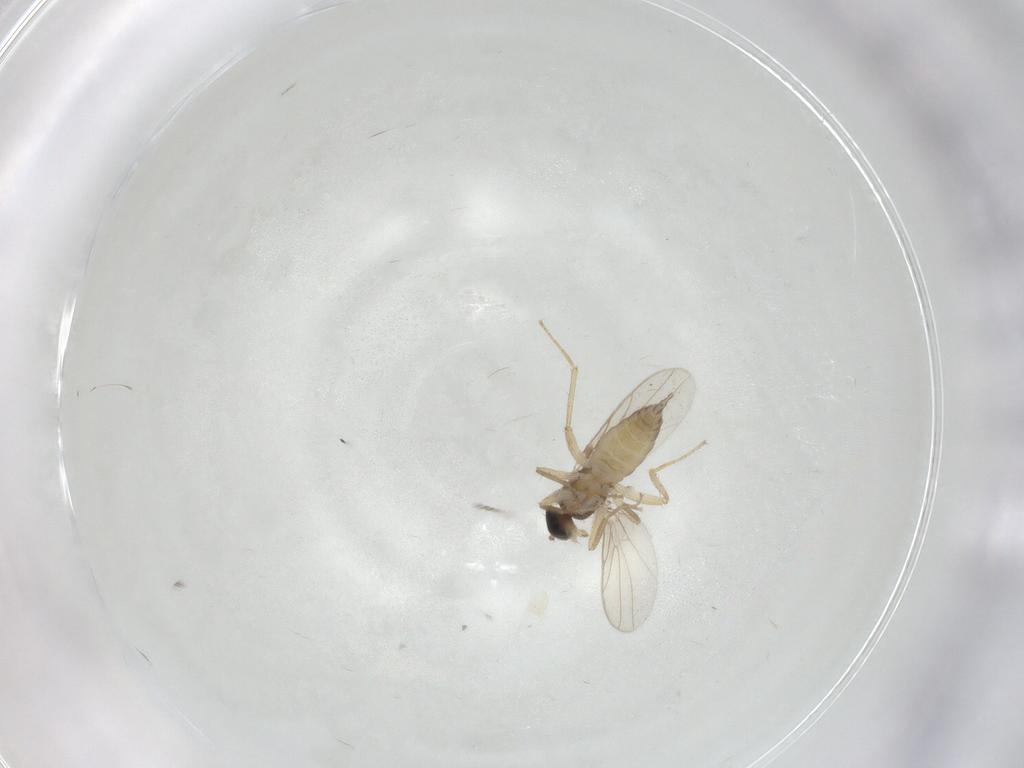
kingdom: Animalia
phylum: Arthropoda
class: Insecta
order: Diptera
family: Hybotidae
